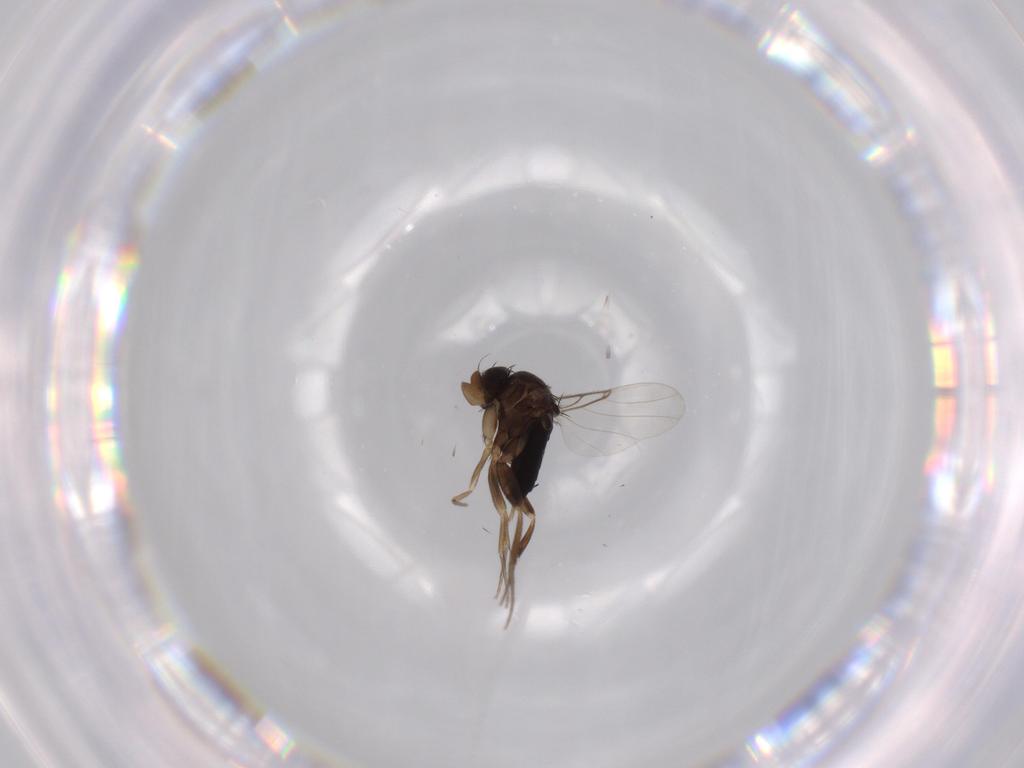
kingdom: Animalia
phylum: Arthropoda
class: Insecta
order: Diptera
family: Phoridae
